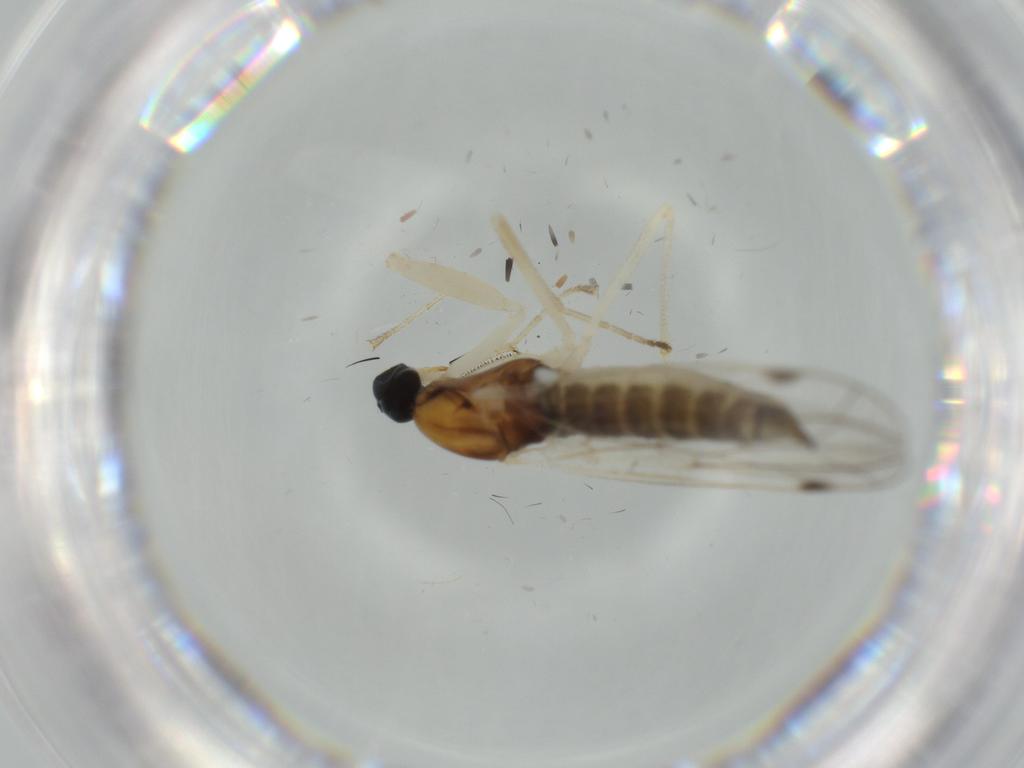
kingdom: Animalia
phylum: Arthropoda
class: Insecta
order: Diptera
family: Empididae
